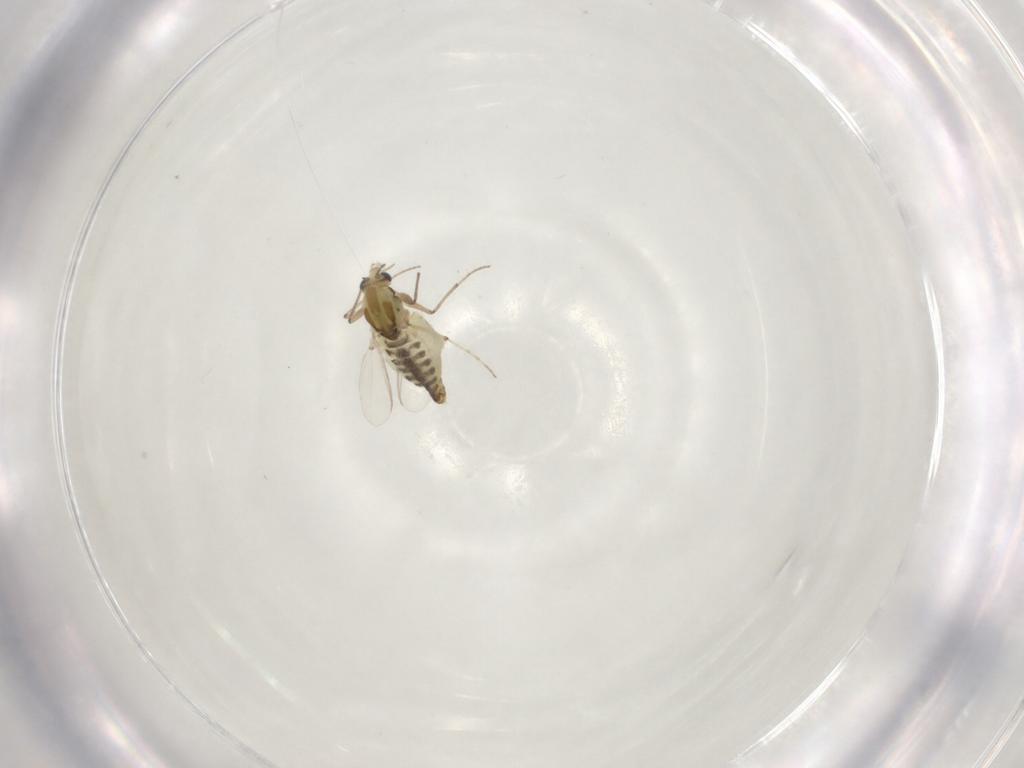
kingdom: Animalia
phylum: Arthropoda
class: Insecta
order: Diptera
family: Chironomidae
